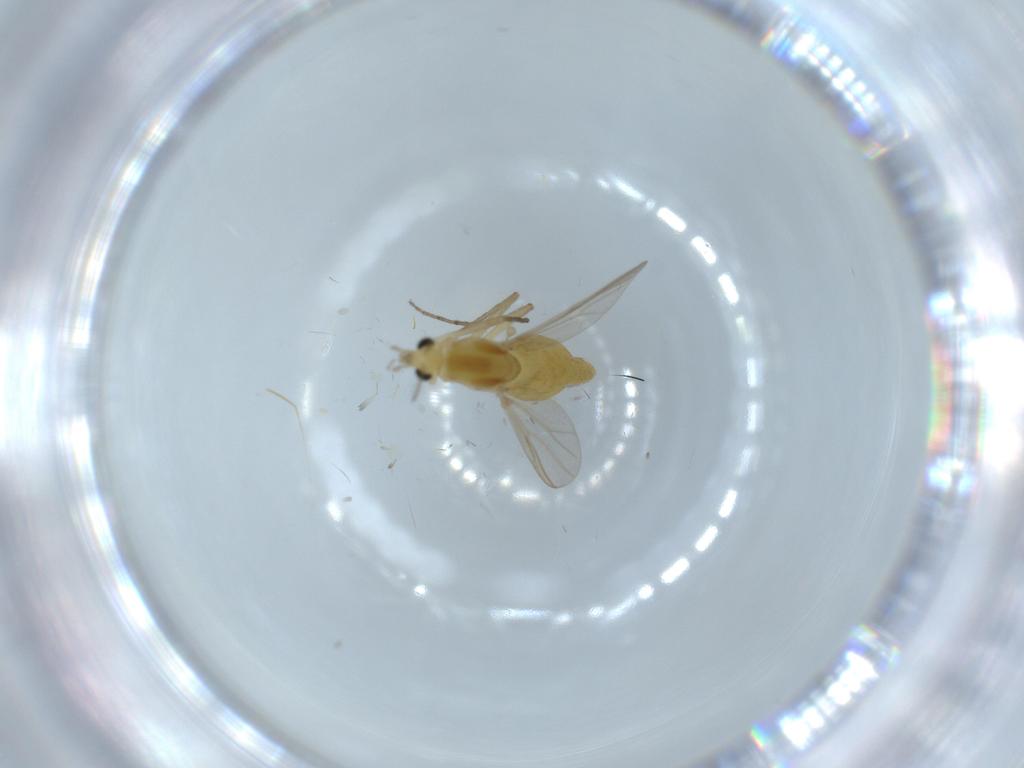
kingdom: Animalia
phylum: Arthropoda
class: Insecta
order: Diptera
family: Chironomidae
